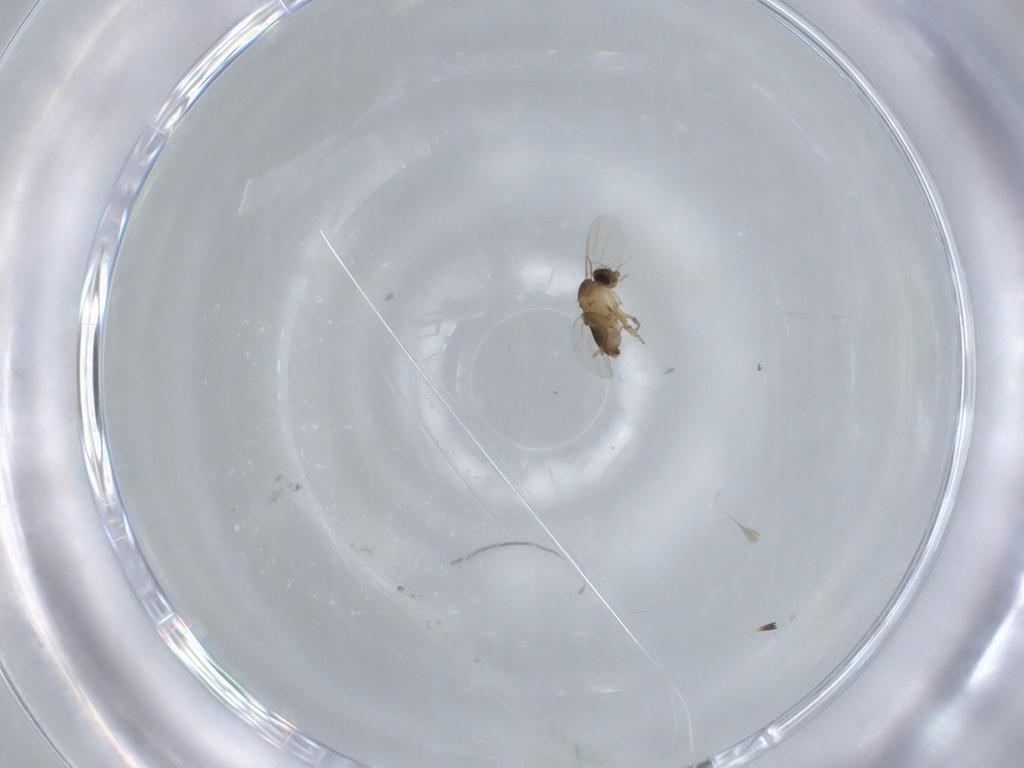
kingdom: Animalia
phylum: Arthropoda
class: Insecta
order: Diptera
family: Phoridae
